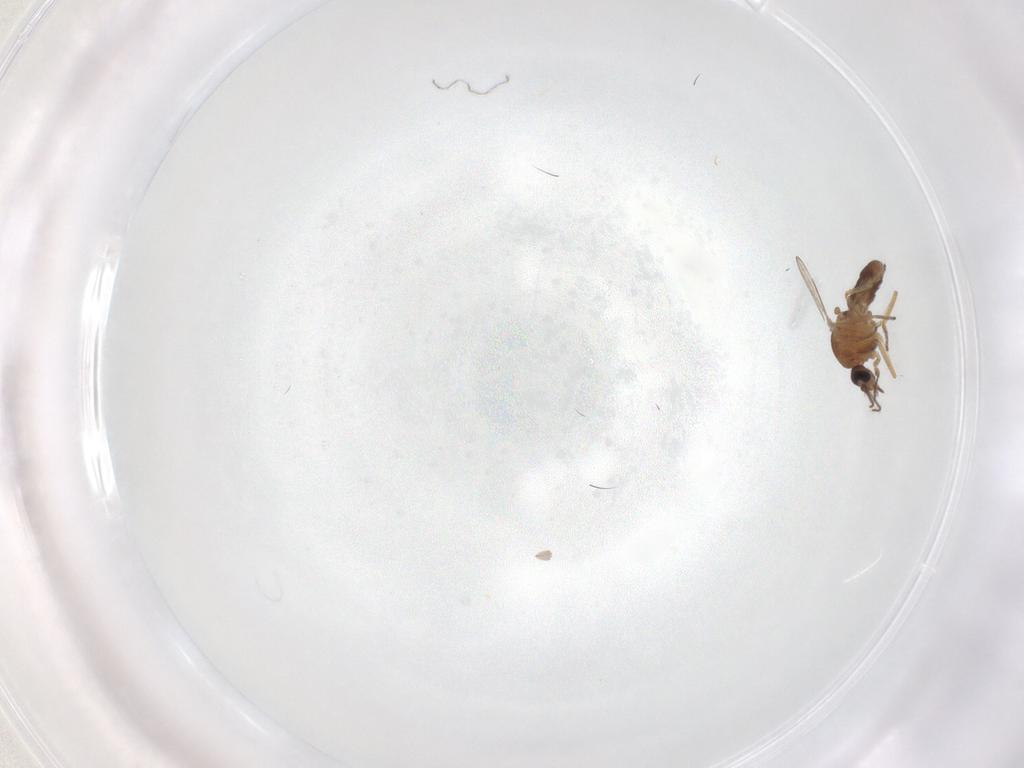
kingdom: Animalia
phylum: Arthropoda
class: Insecta
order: Diptera
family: Ceratopogonidae
